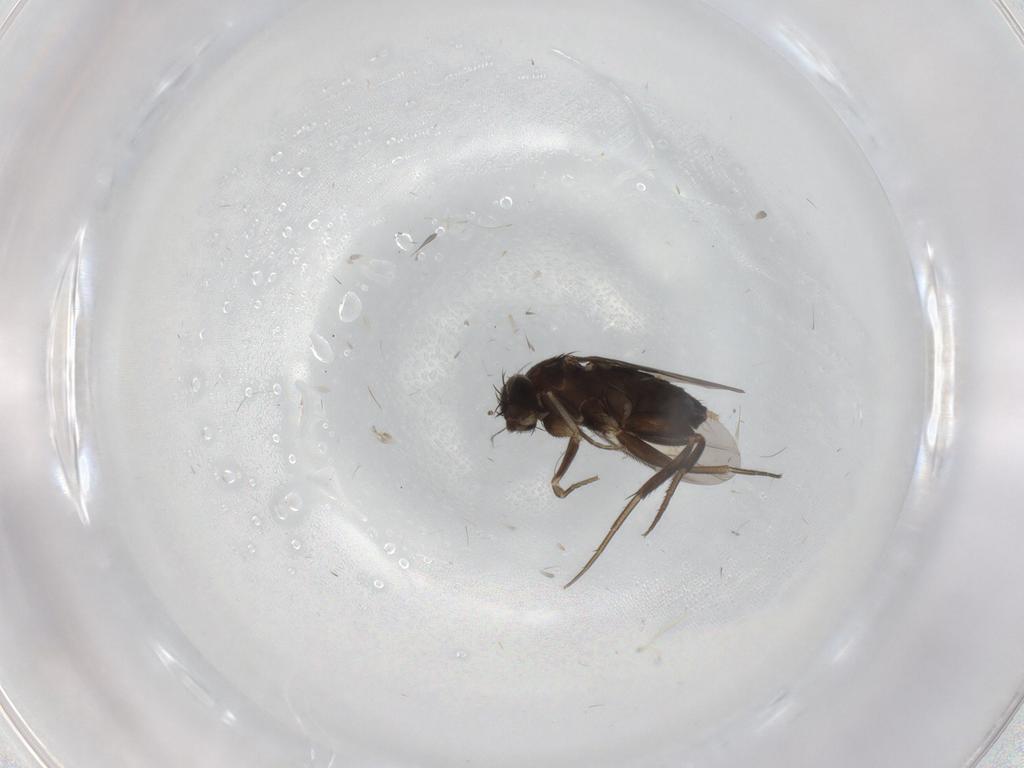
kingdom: Animalia
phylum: Arthropoda
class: Insecta
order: Diptera
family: Phoridae
